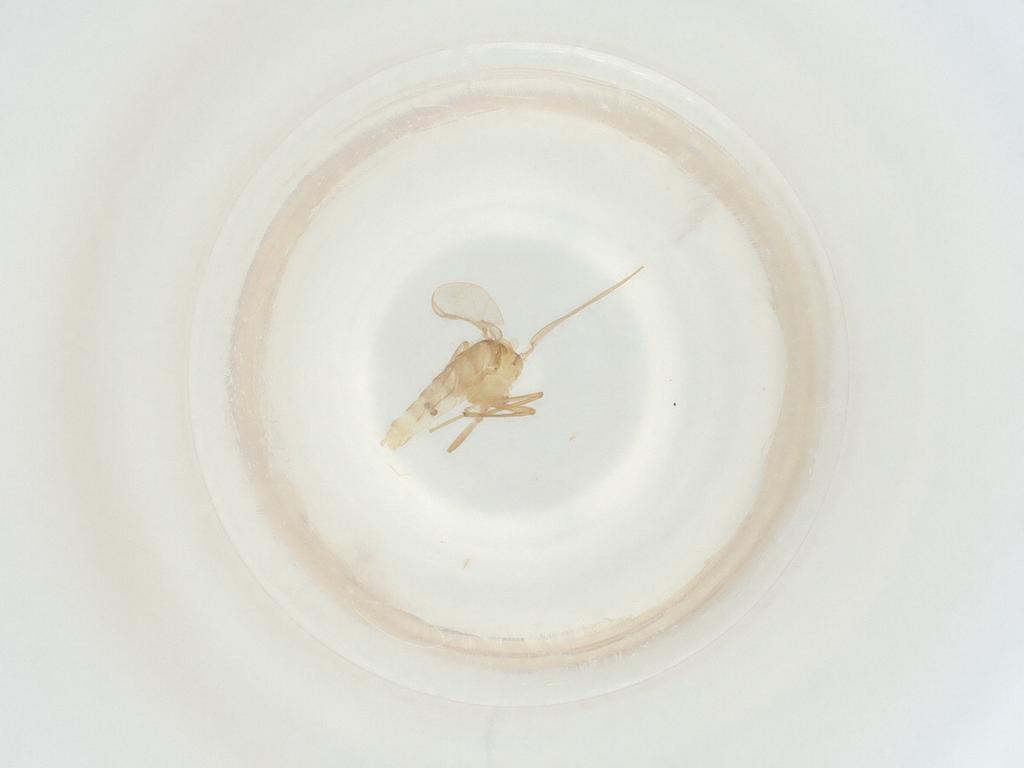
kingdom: Animalia
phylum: Arthropoda
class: Insecta
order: Diptera
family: Chironomidae
